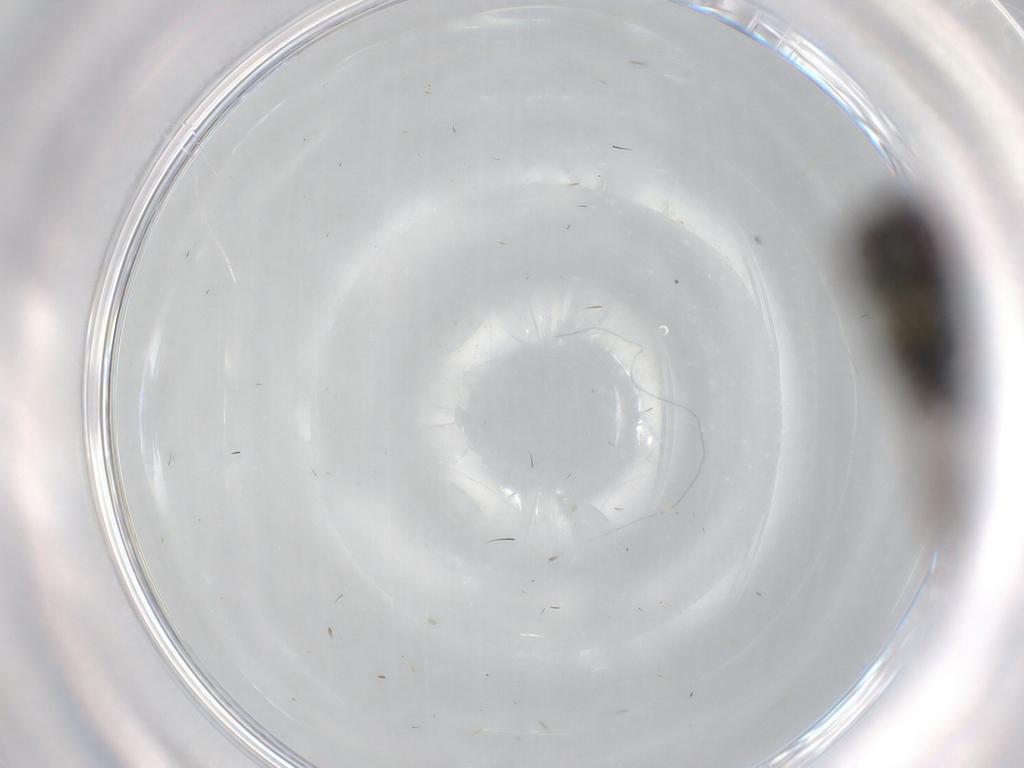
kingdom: Animalia
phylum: Arthropoda
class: Insecta
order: Diptera
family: Dolichopodidae
